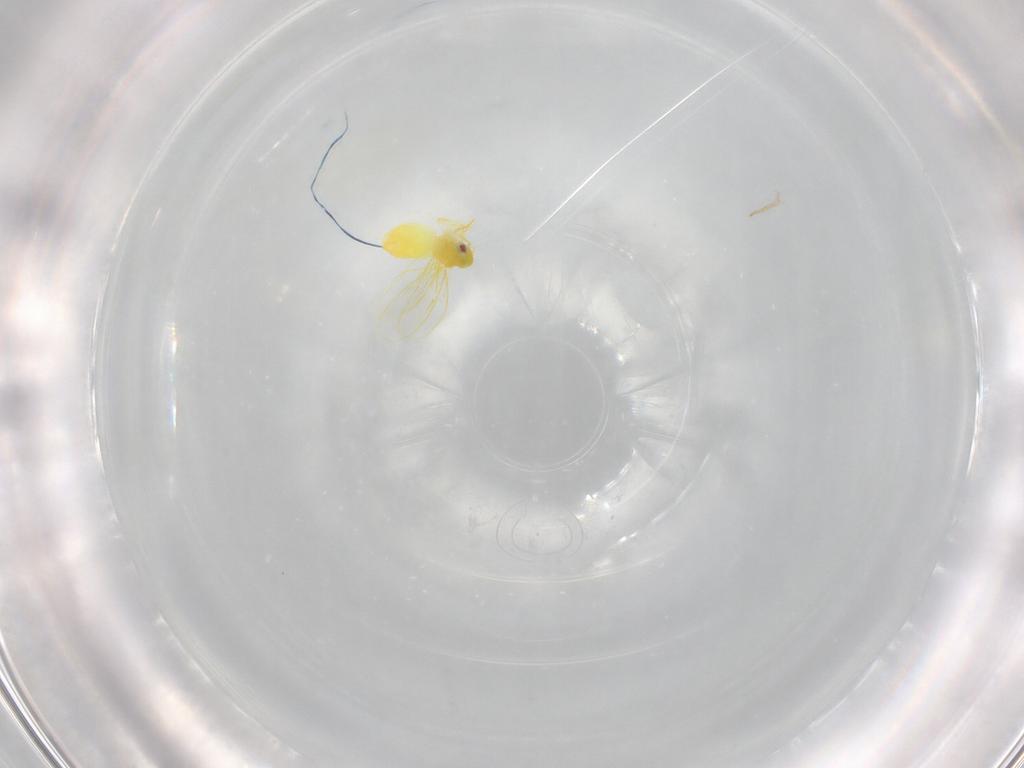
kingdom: Animalia
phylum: Arthropoda
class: Insecta
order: Hemiptera
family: Aleyrodidae
